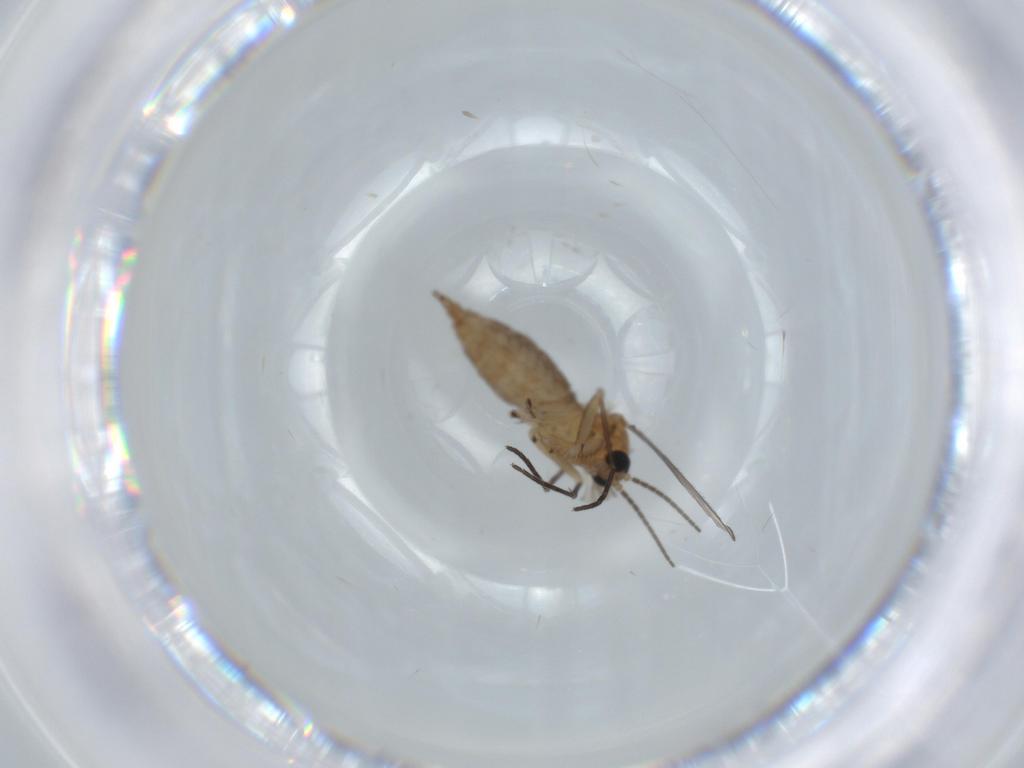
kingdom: Animalia
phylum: Arthropoda
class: Insecta
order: Diptera
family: Sciaridae
